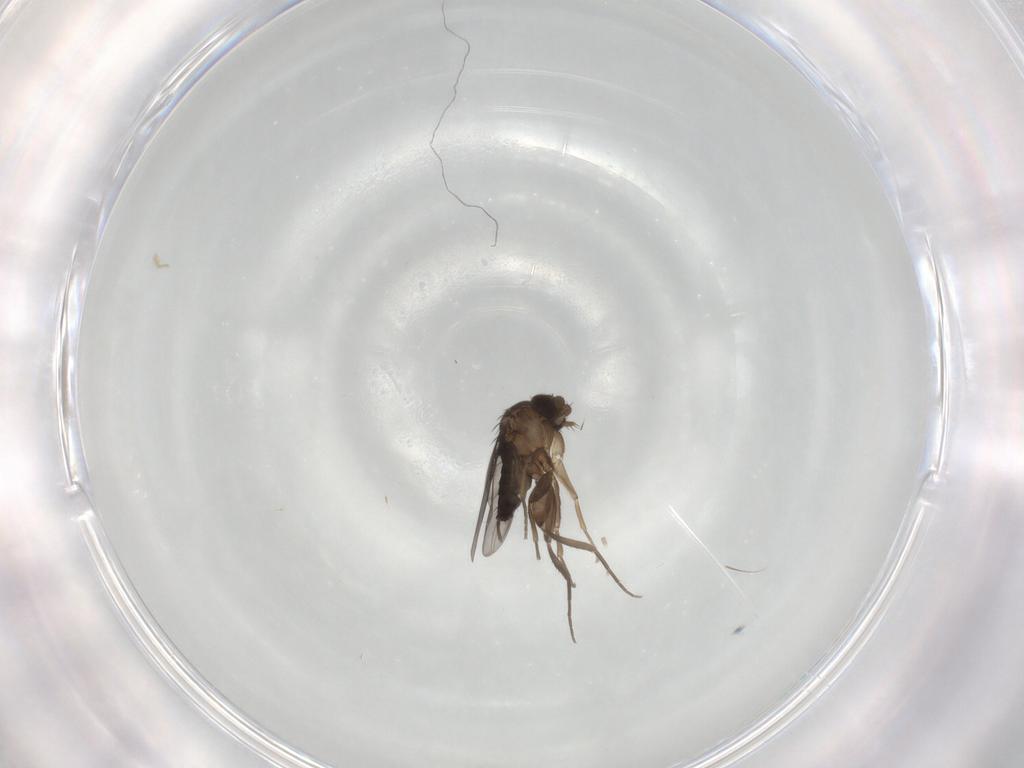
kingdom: Animalia
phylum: Arthropoda
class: Insecta
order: Diptera
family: Phoridae
